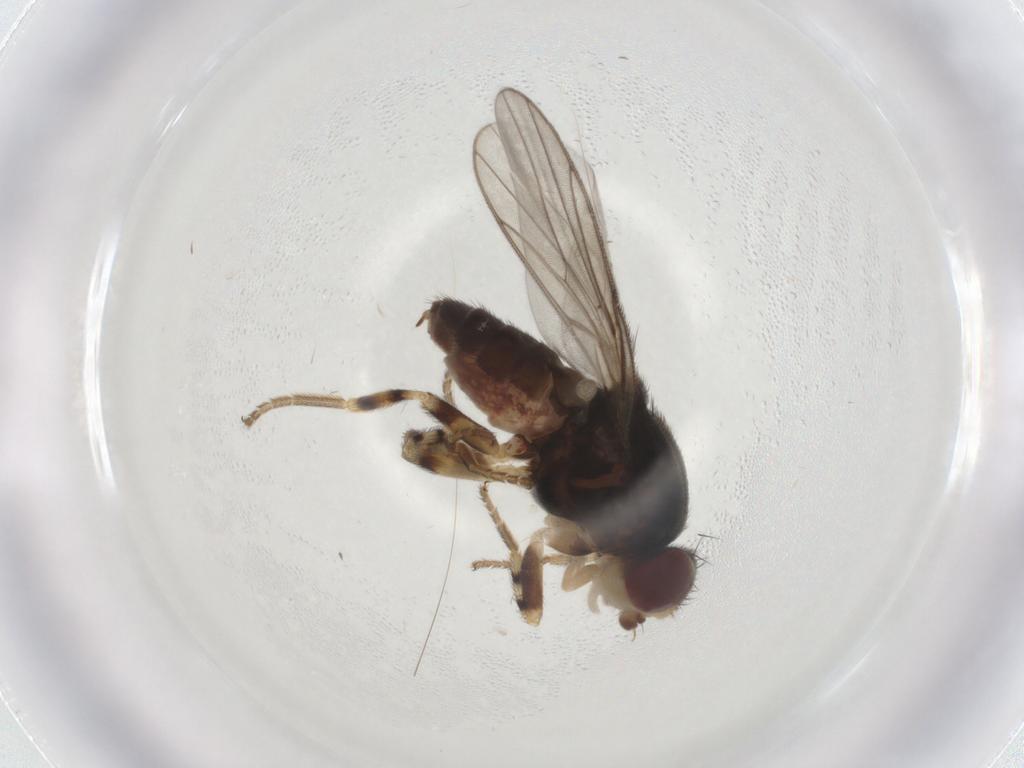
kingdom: Animalia
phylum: Arthropoda
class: Insecta
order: Diptera
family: Chloropidae
